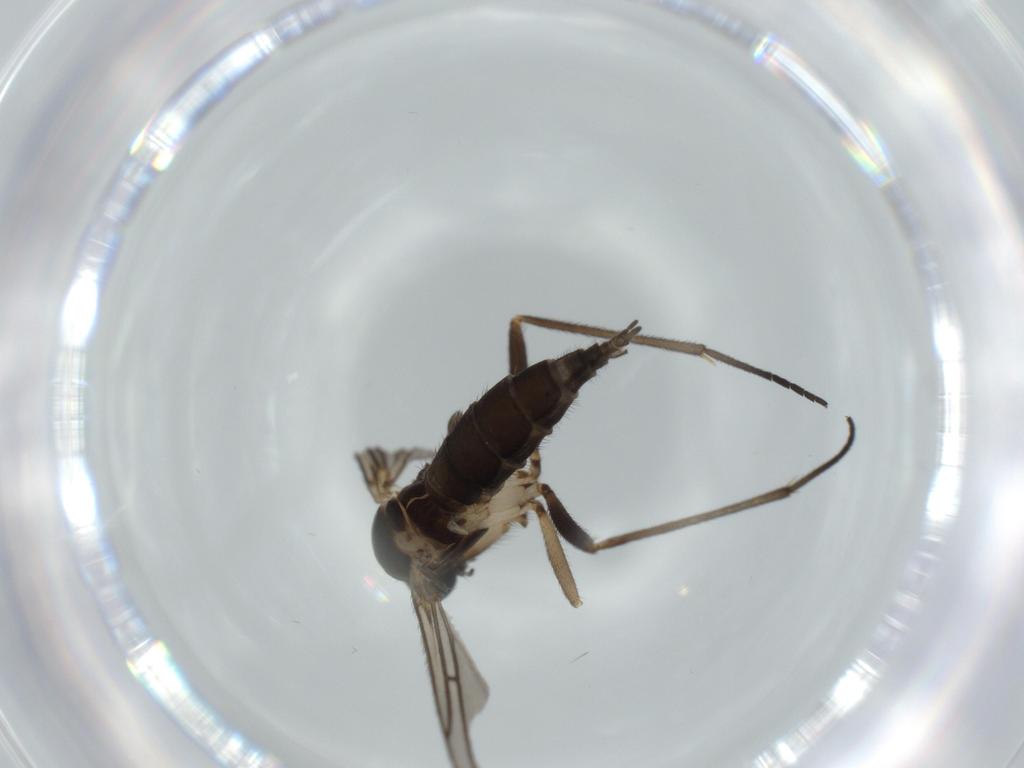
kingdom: Animalia
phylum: Arthropoda
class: Insecta
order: Diptera
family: Sciaridae
